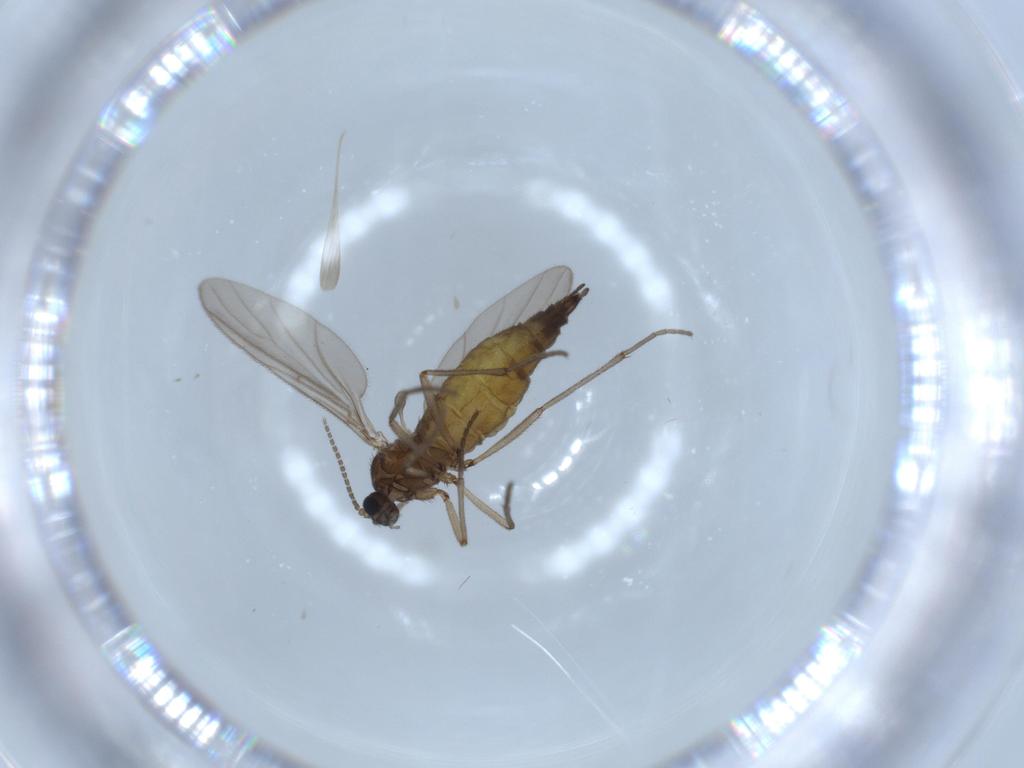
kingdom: Animalia
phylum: Arthropoda
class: Insecta
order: Diptera
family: Sciaridae
